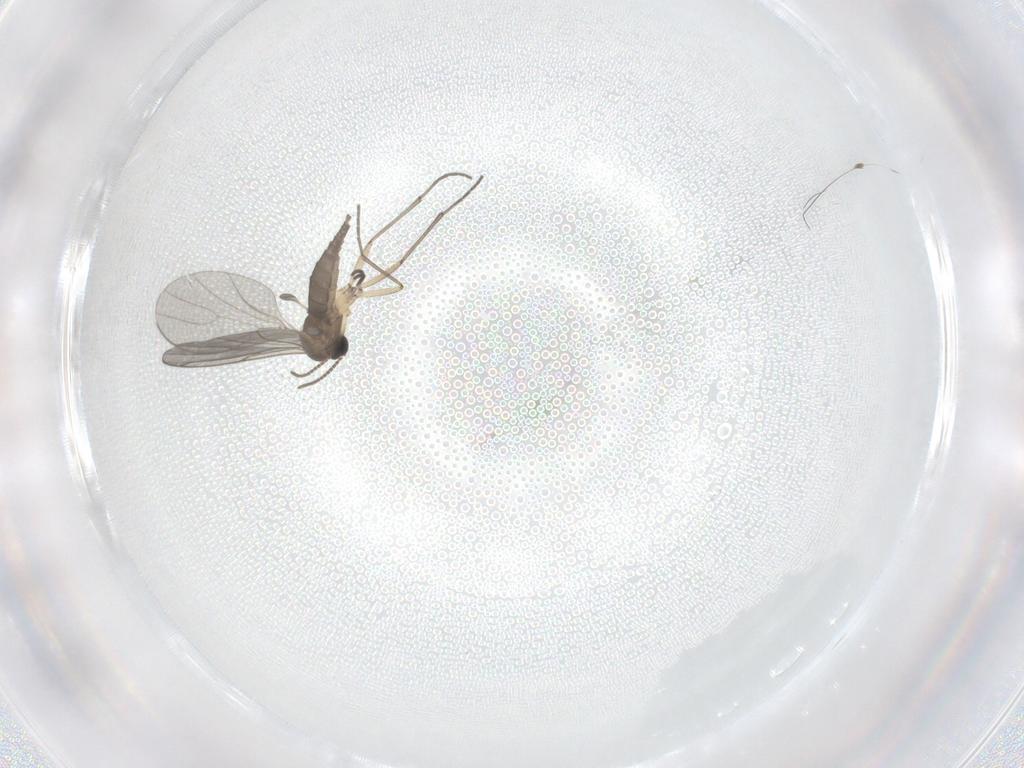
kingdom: Animalia
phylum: Arthropoda
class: Insecta
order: Diptera
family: Sciaridae
